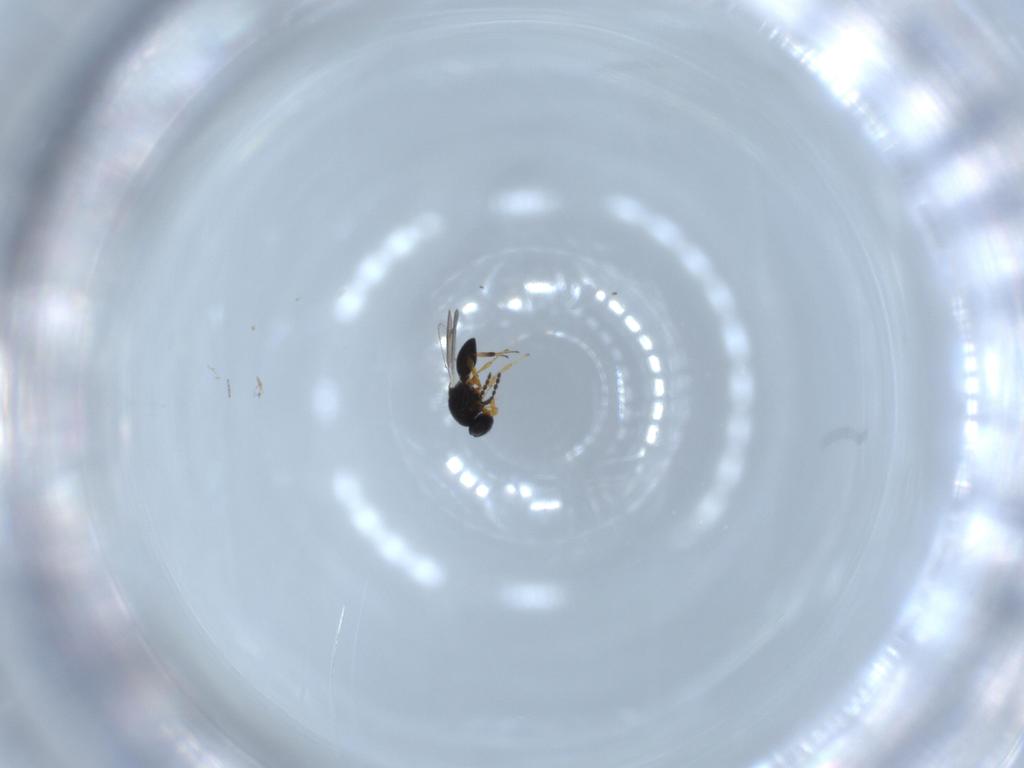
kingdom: Animalia
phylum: Arthropoda
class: Insecta
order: Hymenoptera
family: Platygastridae
